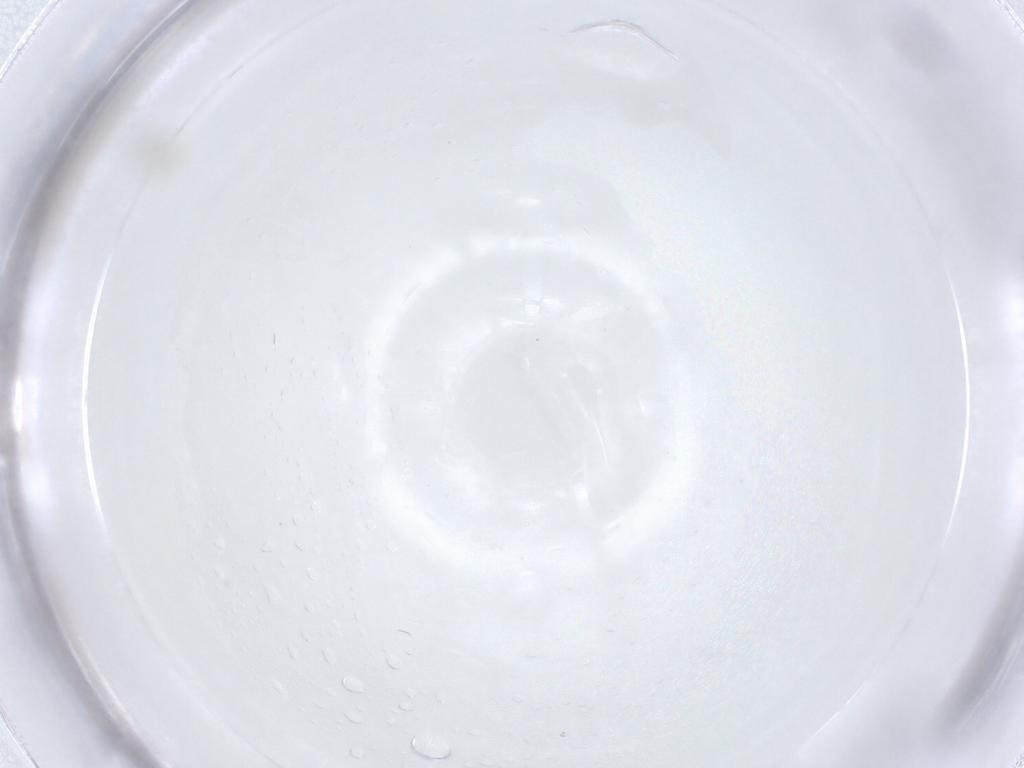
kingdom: Animalia
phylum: Arthropoda
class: Insecta
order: Diptera
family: Cecidomyiidae
